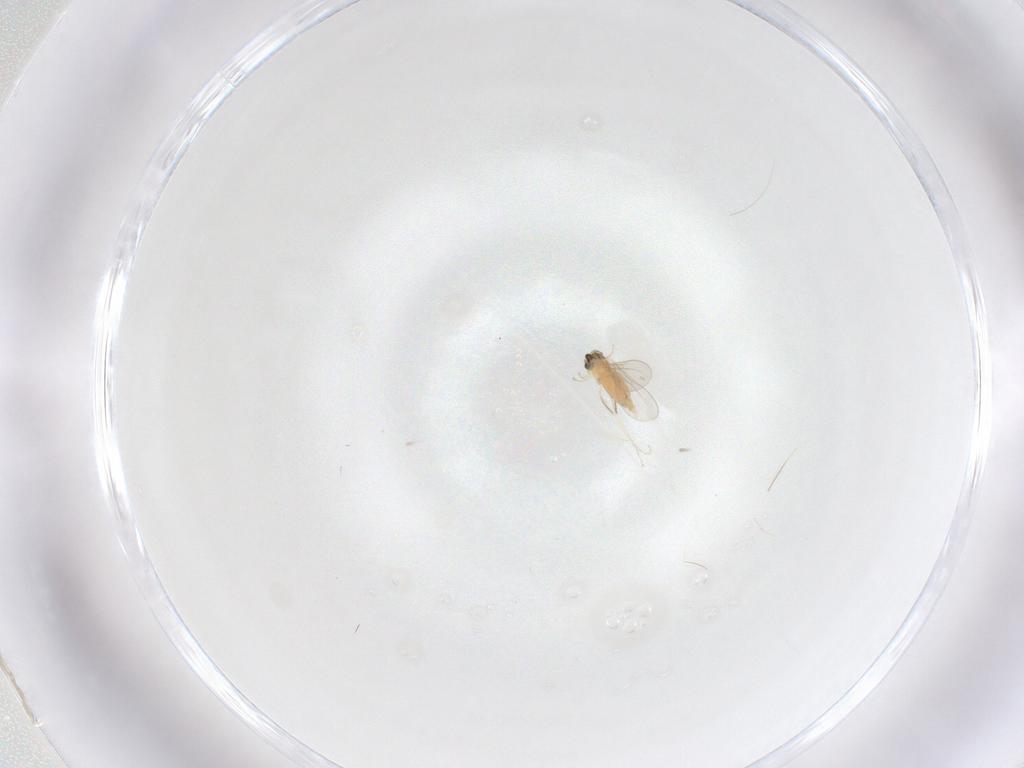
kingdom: Animalia
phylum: Arthropoda
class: Insecta
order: Diptera
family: Cecidomyiidae
